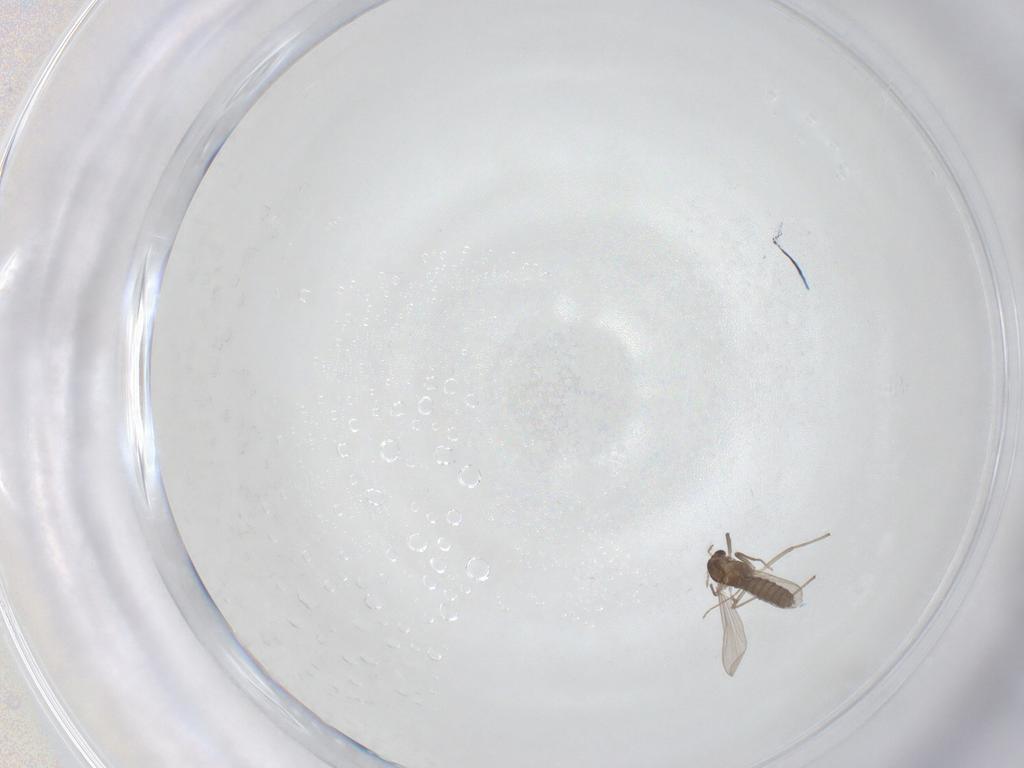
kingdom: Animalia
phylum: Arthropoda
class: Insecta
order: Diptera
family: Chironomidae
